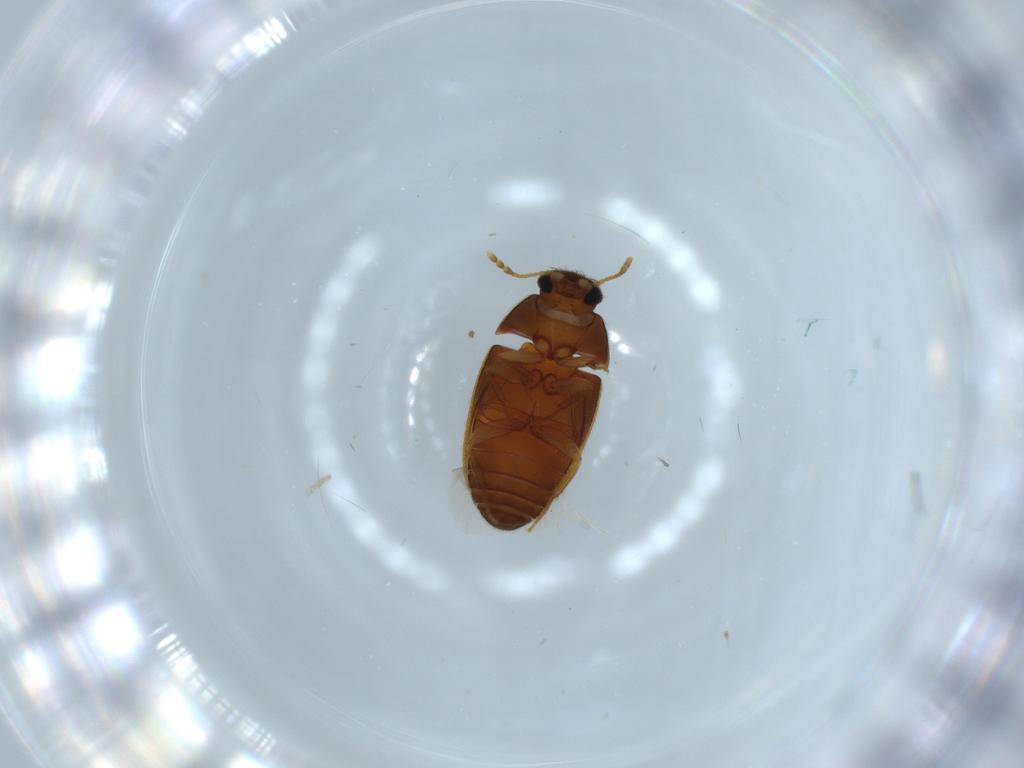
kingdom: Animalia
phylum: Arthropoda
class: Insecta
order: Coleoptera
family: Mycetophagidae
